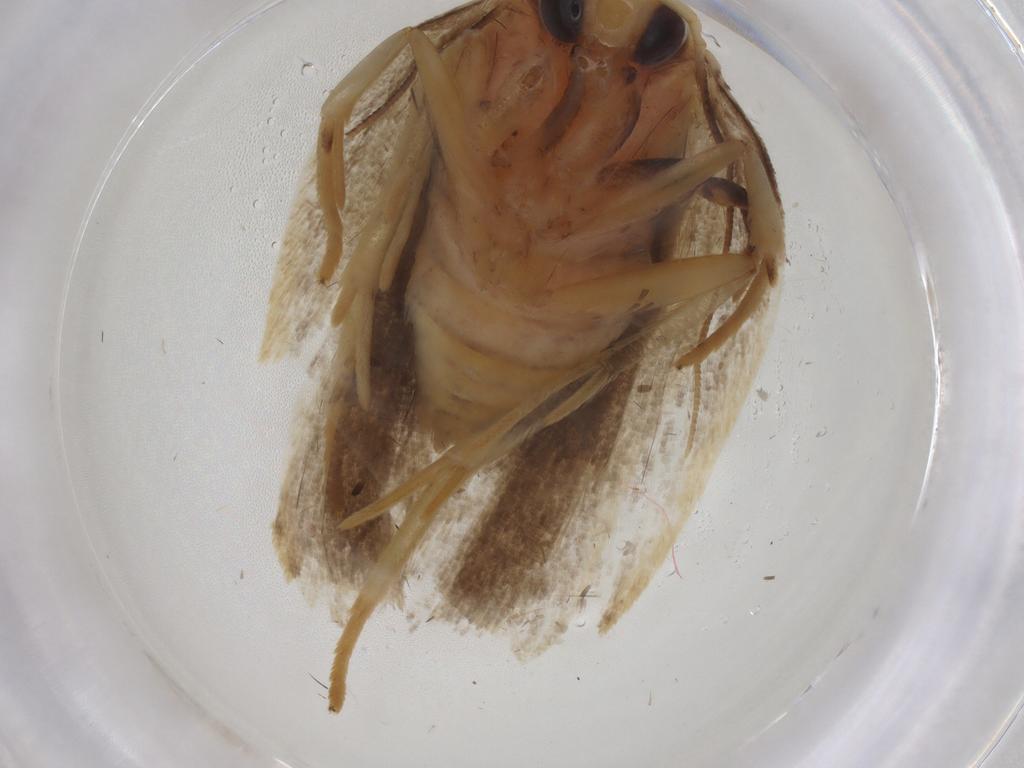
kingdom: Animalia
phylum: Arthropoda
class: Insecta
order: Lepidoptera
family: Depressariidae
